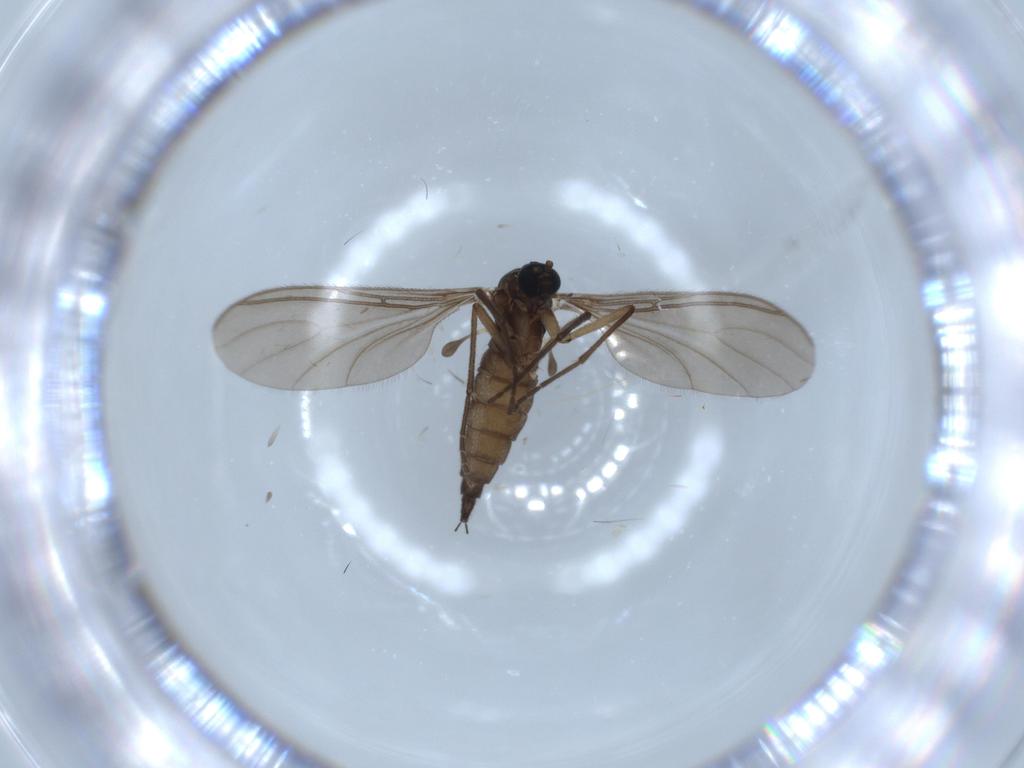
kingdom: Animalia
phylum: Arthropoda
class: Insecta
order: Diptera
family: Sciaridae
